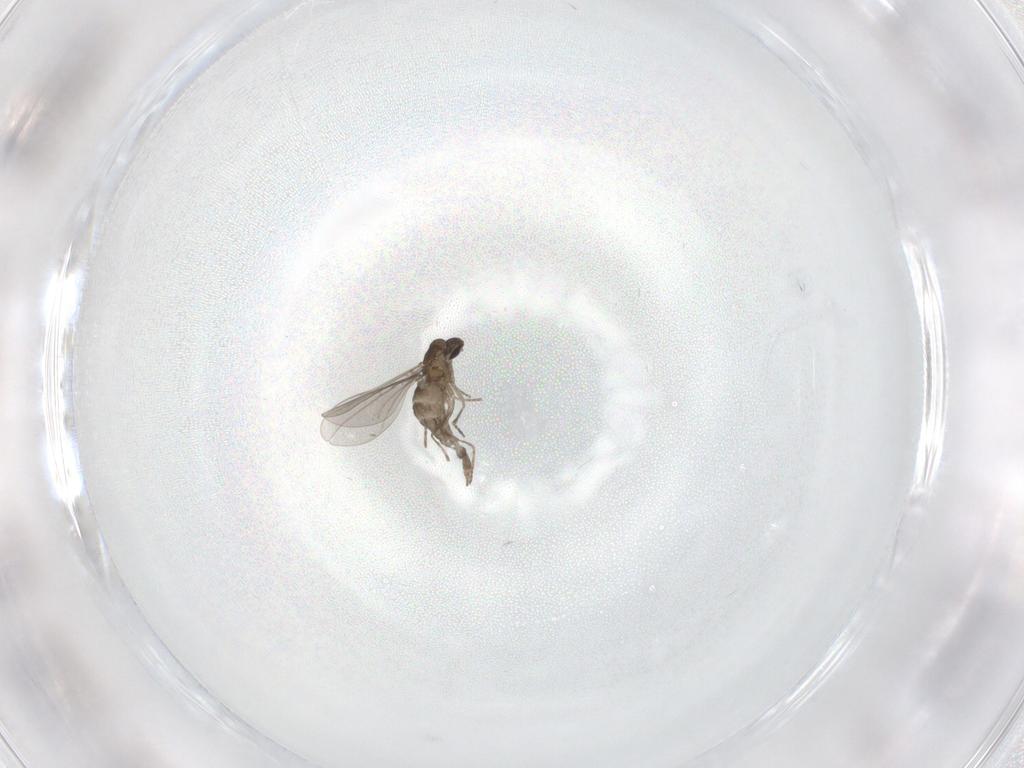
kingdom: Animalia
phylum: Arthropoda
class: Insecta
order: Diptera
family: Tabanidae
